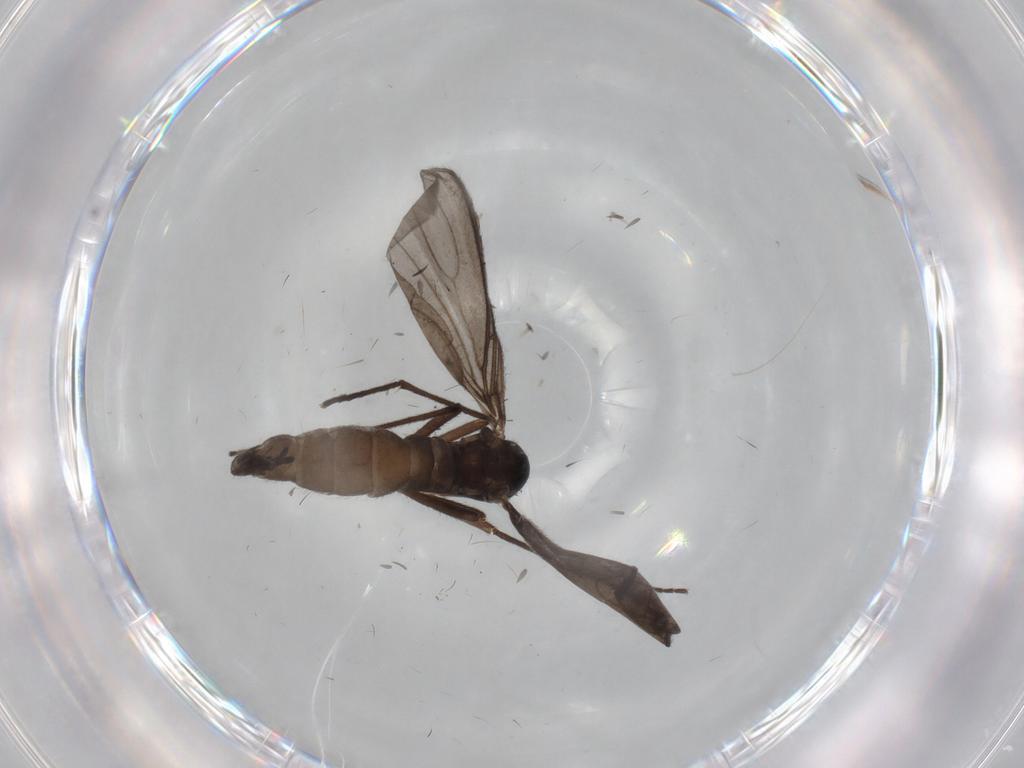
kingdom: Animalia
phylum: Arthropoda
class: Insecta
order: Diptera
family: Sciaridae
